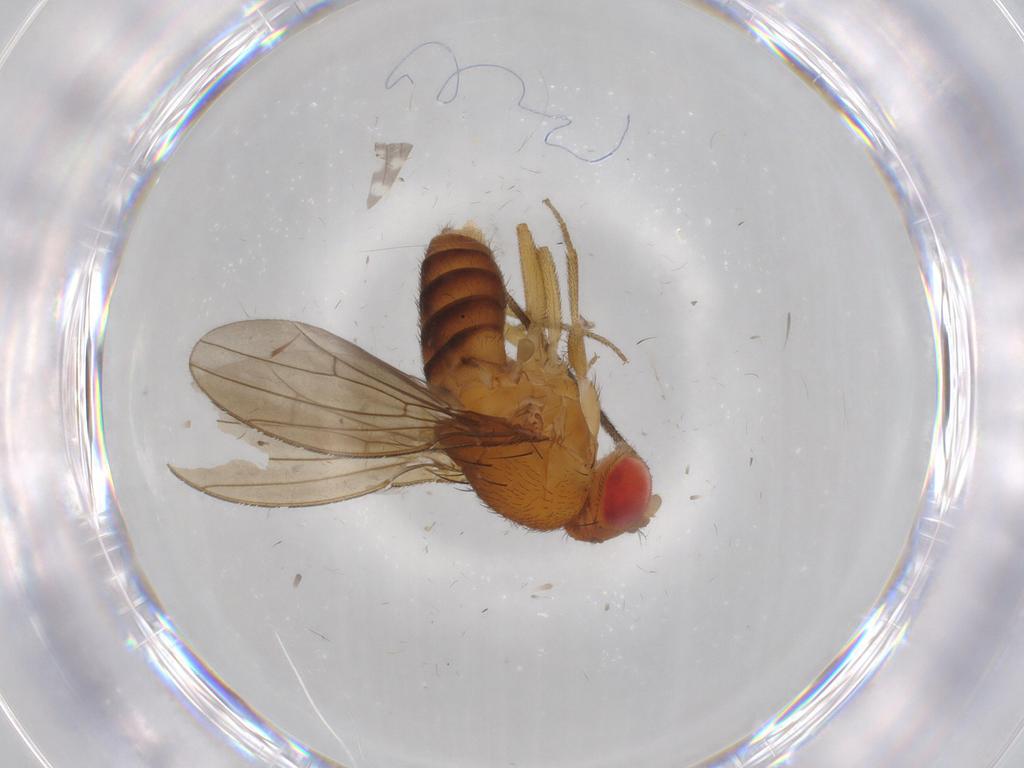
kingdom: Animalia
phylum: Arthropoda
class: Insecta
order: Diptera
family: Drosophilidae
